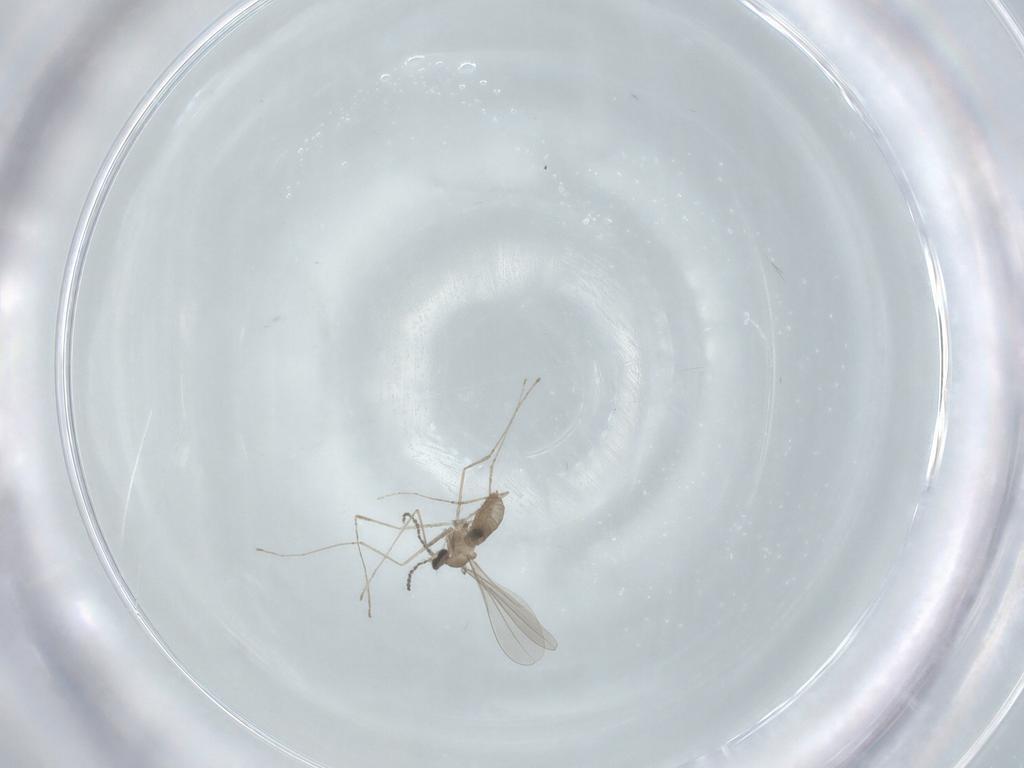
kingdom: Animalia
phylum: Arthropoda
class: Insecta
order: Diptera
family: Cecidomyiidae
